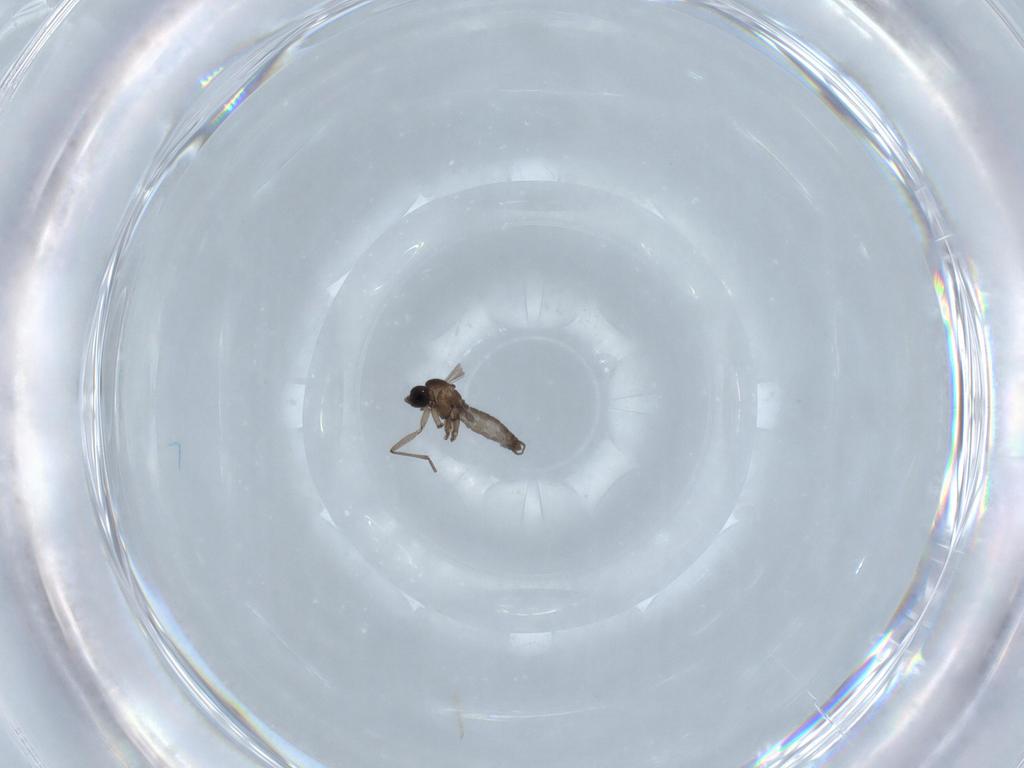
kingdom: Animalia
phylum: Arthropoda
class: Insecta
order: Diptera
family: Sciaridae
